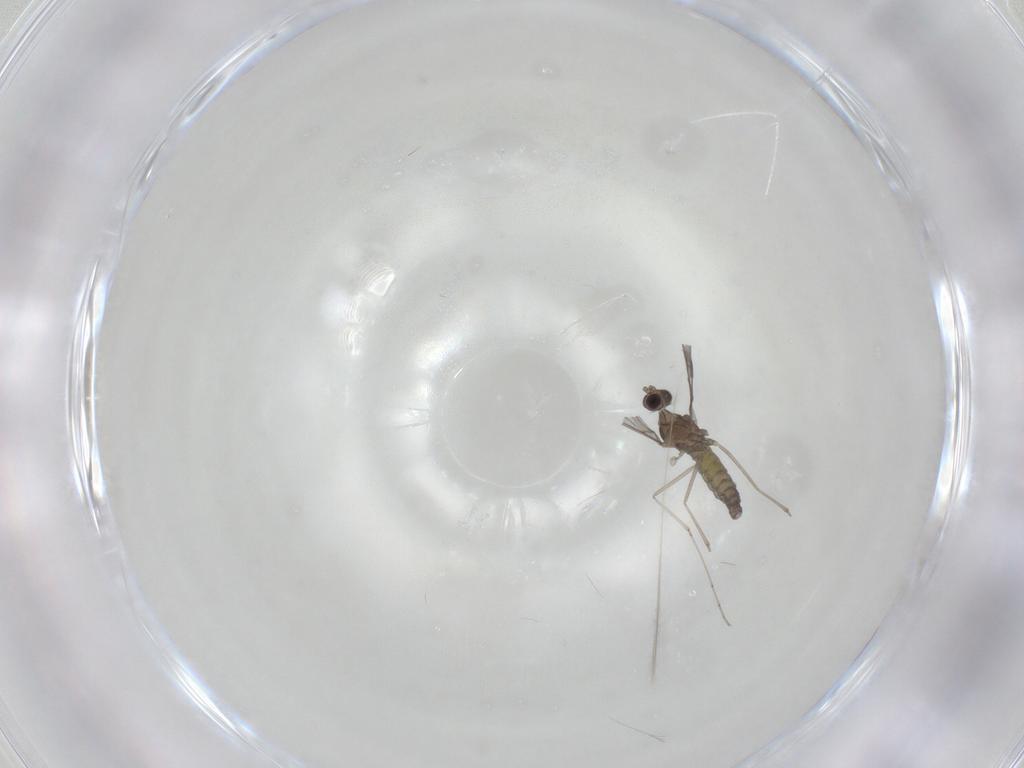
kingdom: Animalia
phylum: Arthropoda
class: Insecta
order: Diptera
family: Cecidomyiidae
